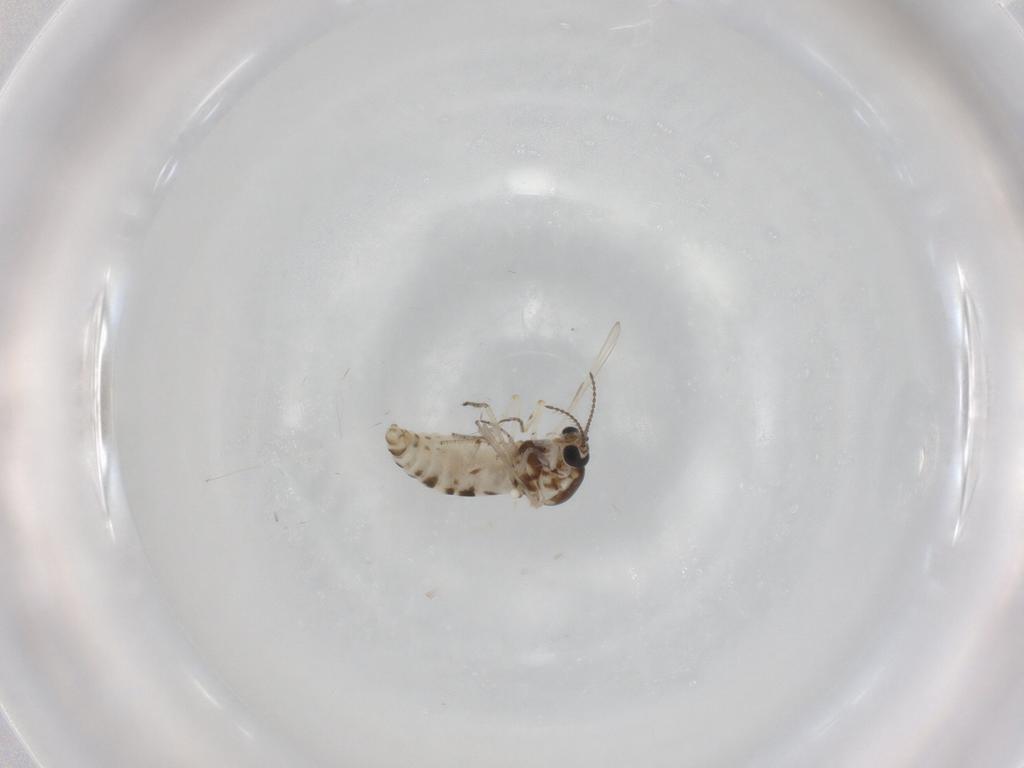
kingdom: Animalia
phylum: Arthropoda
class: Insecta
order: Diptera
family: Ceratopogonidae
